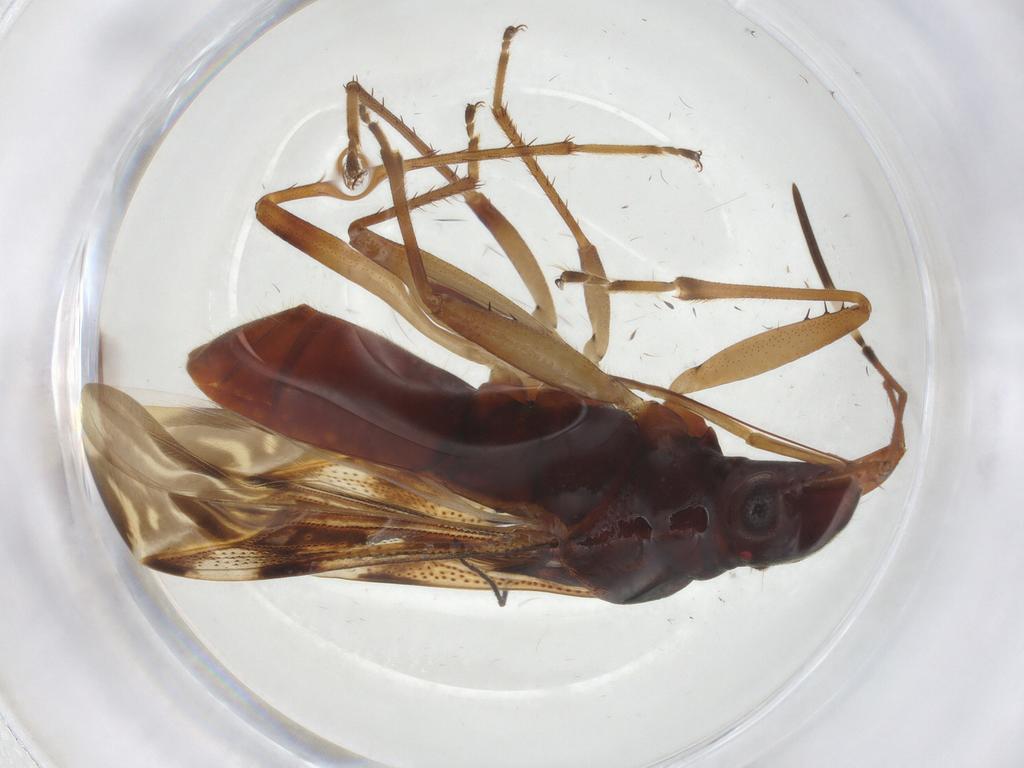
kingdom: Animalia
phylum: Arthropoda
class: Insecta
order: Hemiptera
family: Rhyparochromidae
